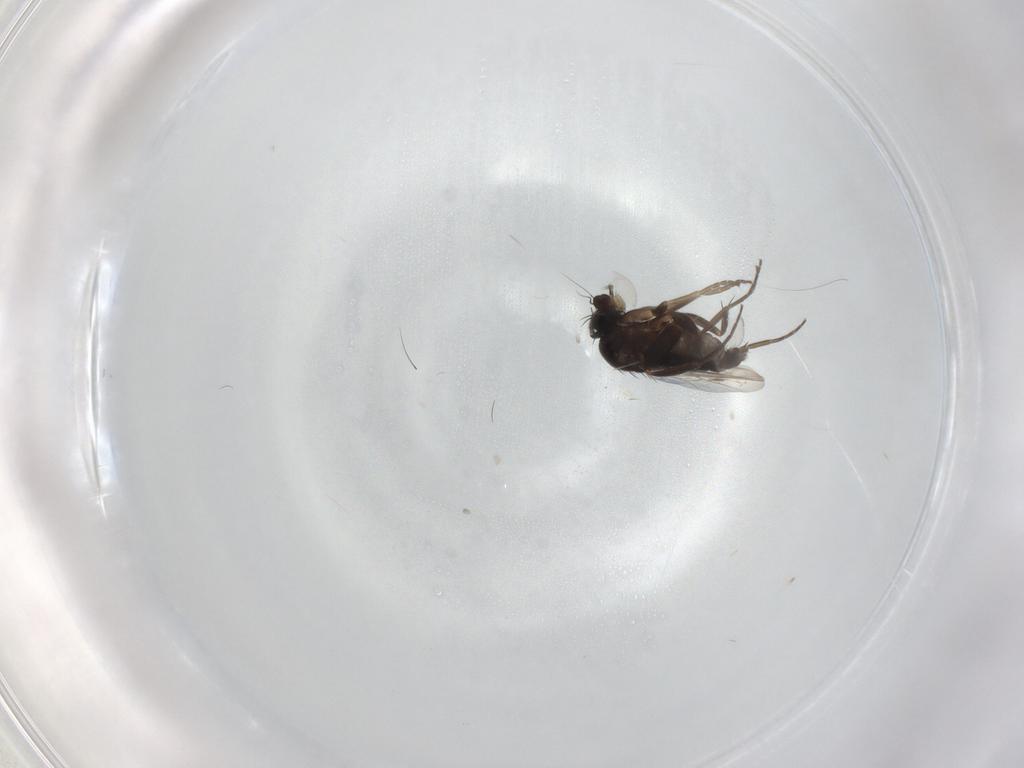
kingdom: Animalia
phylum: Arthropoda
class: Insecta
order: Diptera
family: Phoridae
